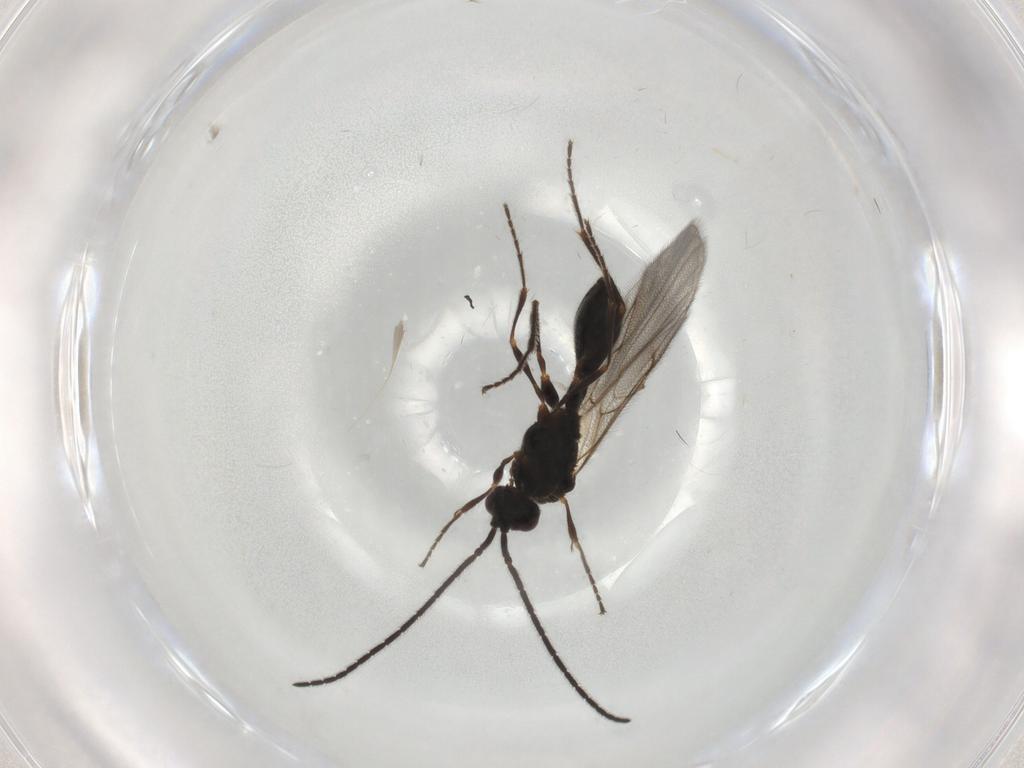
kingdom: Animalia
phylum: Arthropoda
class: Insecta
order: Hymenoptera
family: Diapriidae
